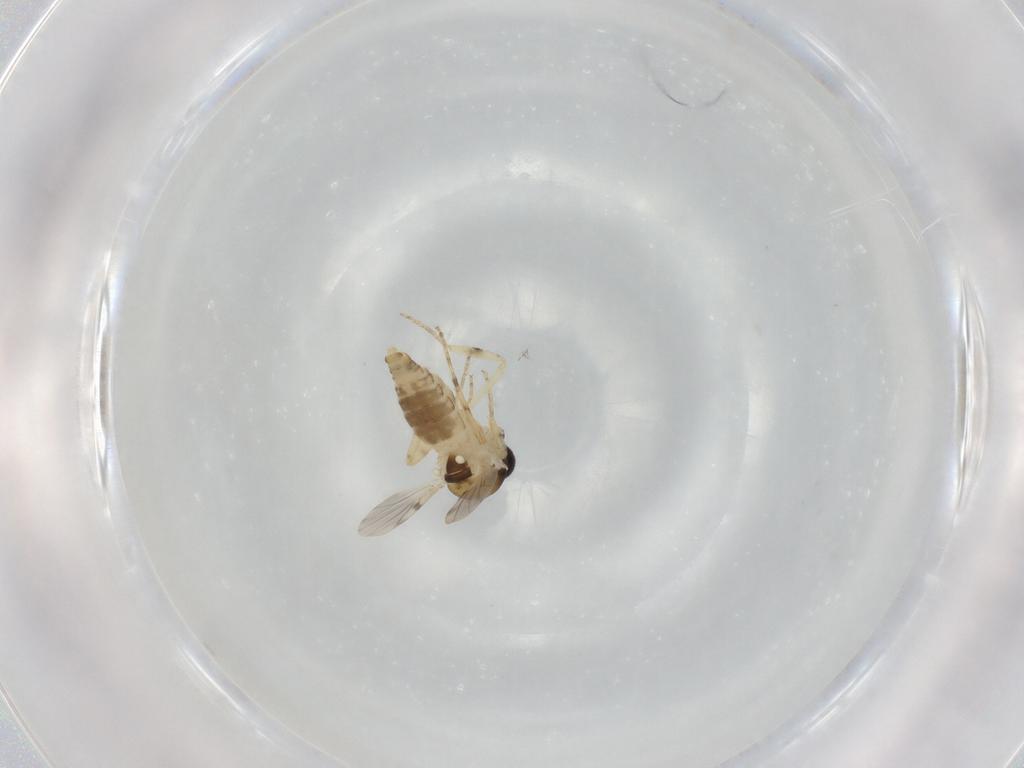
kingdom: Animalia
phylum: Arthropoda
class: Insecta
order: Diptera
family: Ceratopogonidae
